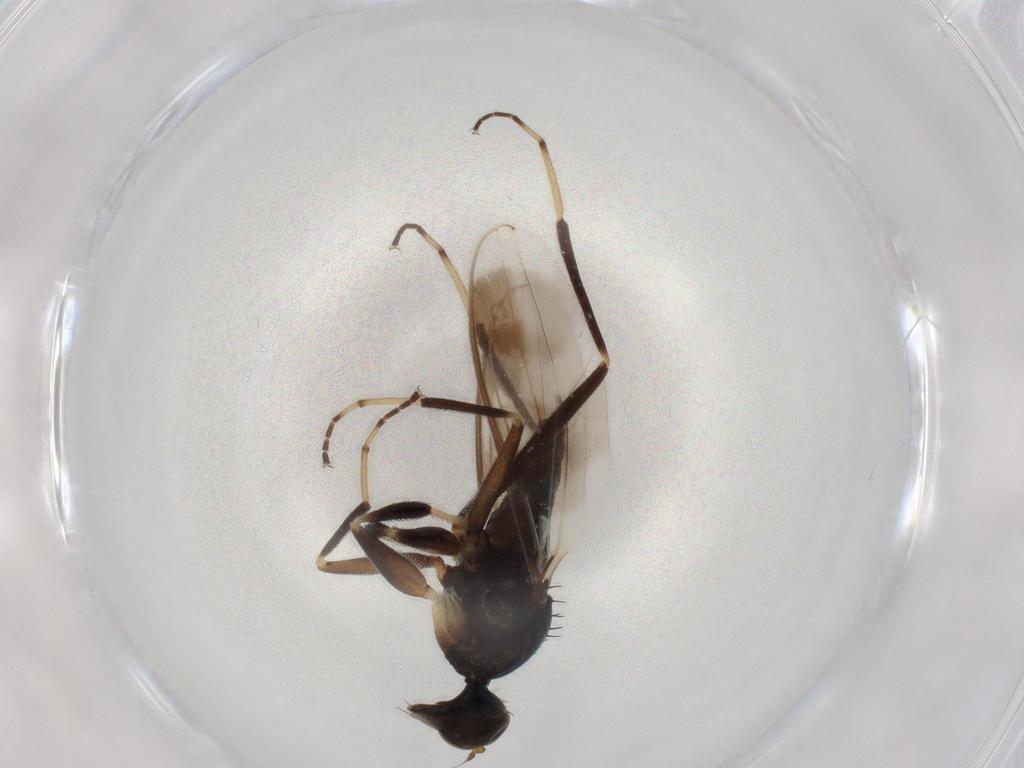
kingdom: Animalia
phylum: Arthropoda
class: Insecta
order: Diptera
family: Hybotidae
